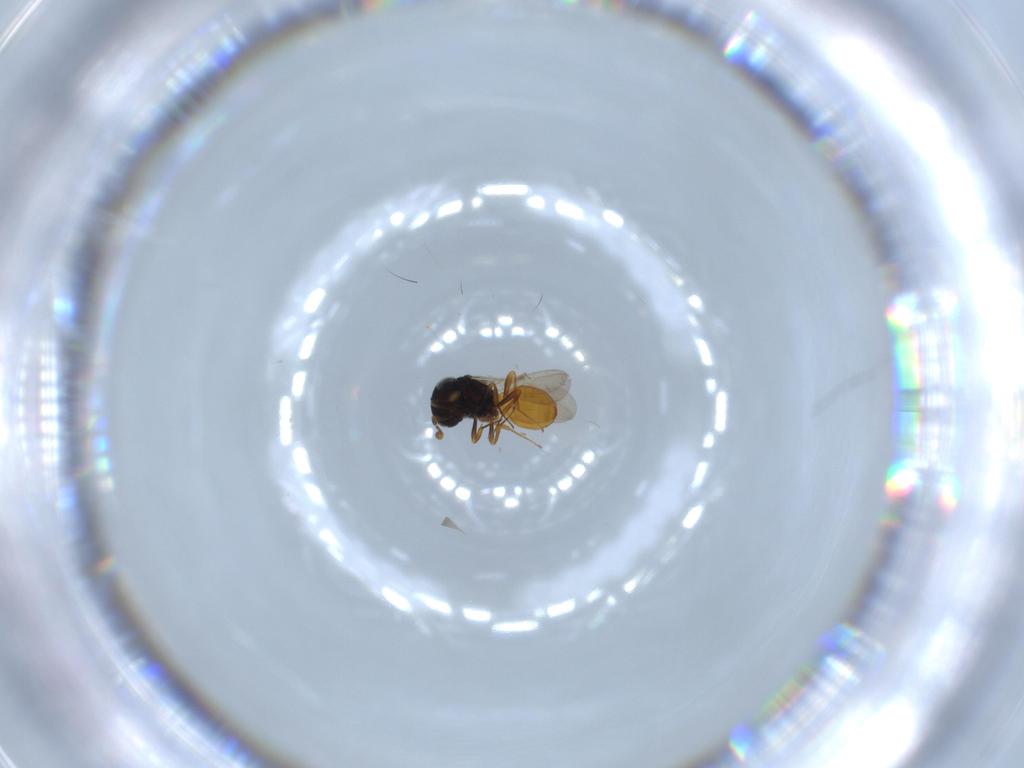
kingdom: Animalia
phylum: Arthropoda
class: Insecta
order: Hymenoptera
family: Scelionidae
